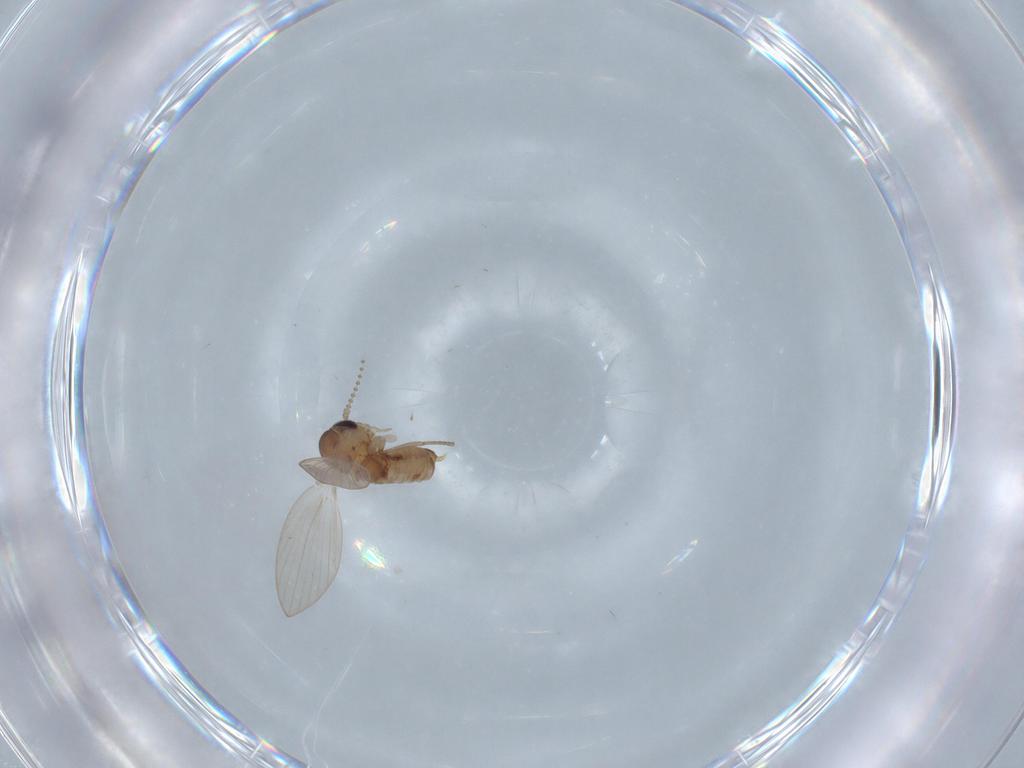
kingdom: Animalia
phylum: Arthropoda
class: Insecta
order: Diptera
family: Psychodidae
